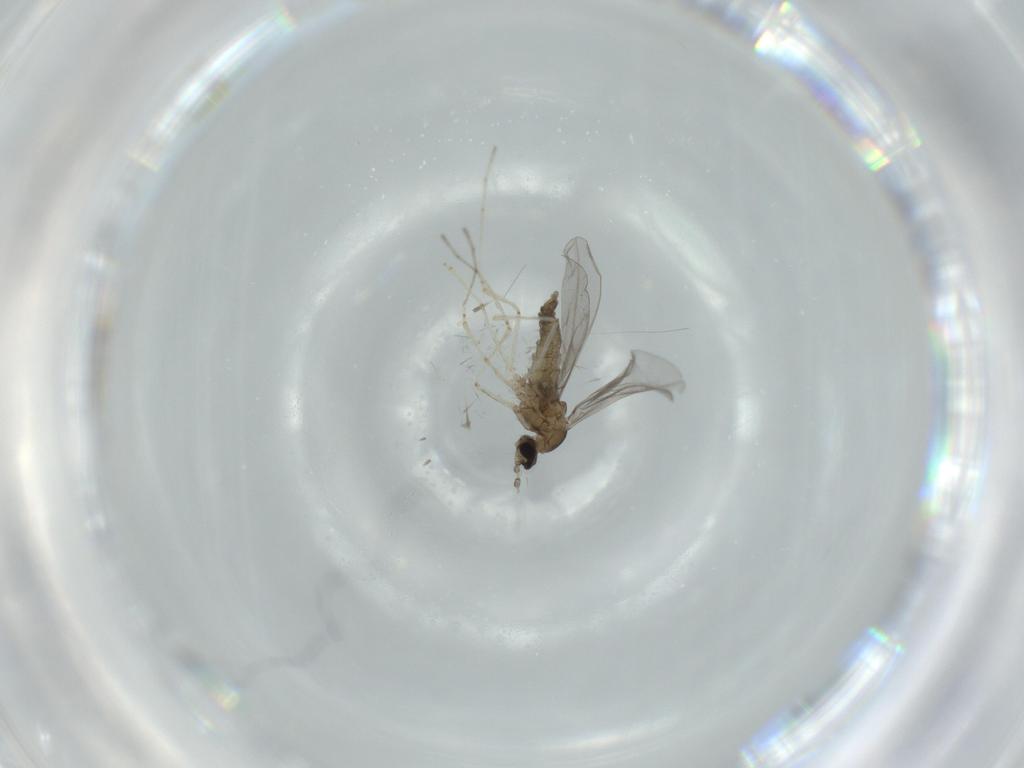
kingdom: Animalia
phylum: Arthropoda
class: Insecta
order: Diptera
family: Cecidomyiidae
